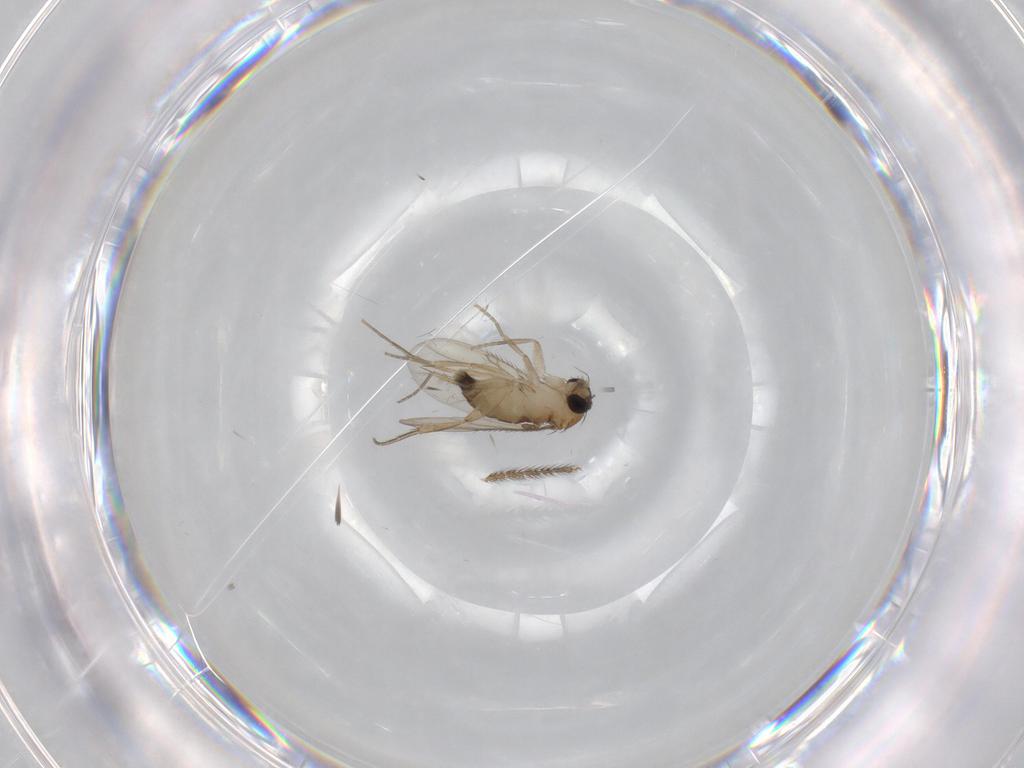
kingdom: Animalia
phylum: Arthropoda
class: Insecta
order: Diptera
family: Phoridae
